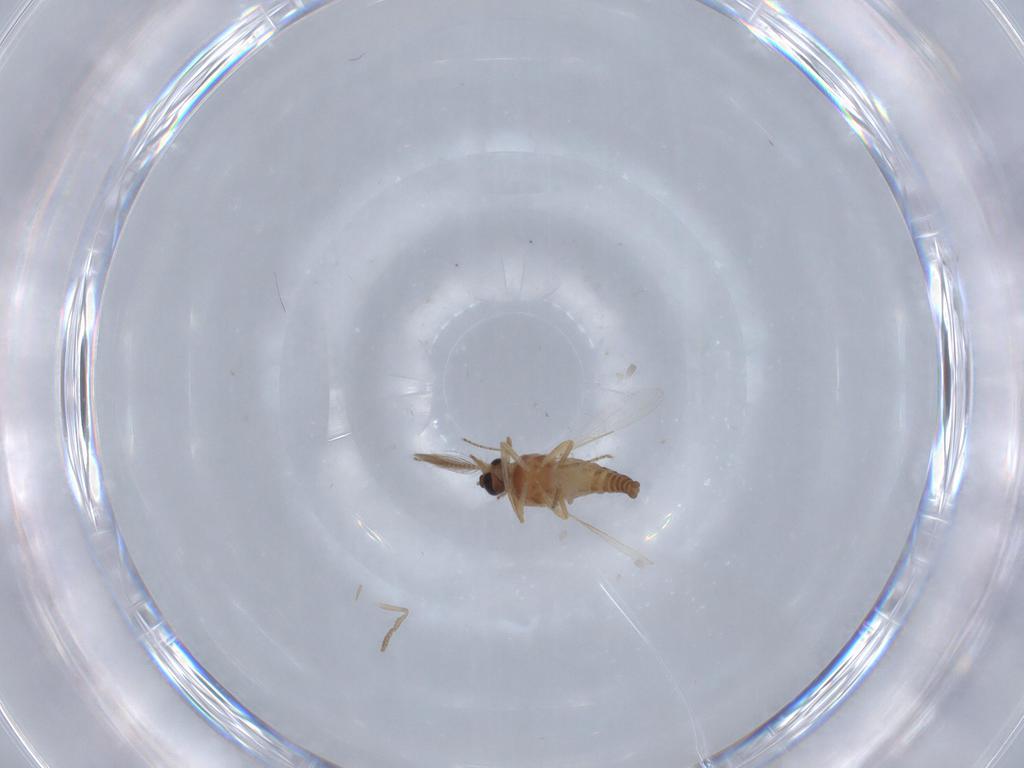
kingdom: Animalia
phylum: Arthropoda
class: Insecta
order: Diptera
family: Ceratopogonidae
